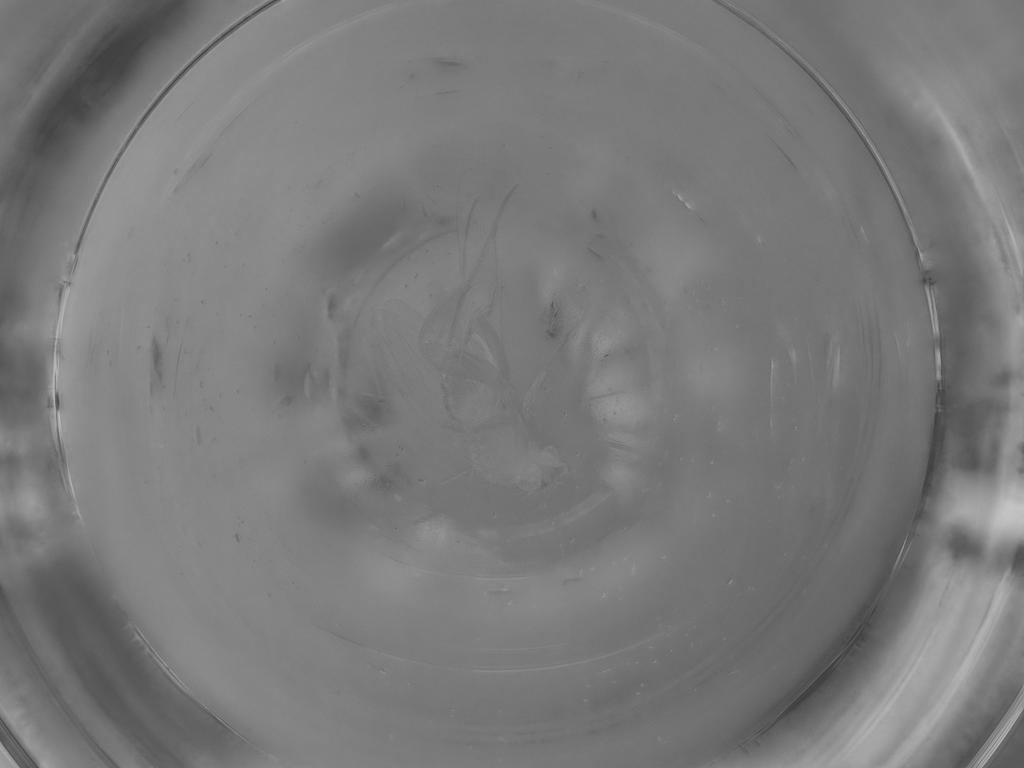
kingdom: Animalia
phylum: Arthropoda
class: Insecta
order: Diptera
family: Phoridae
